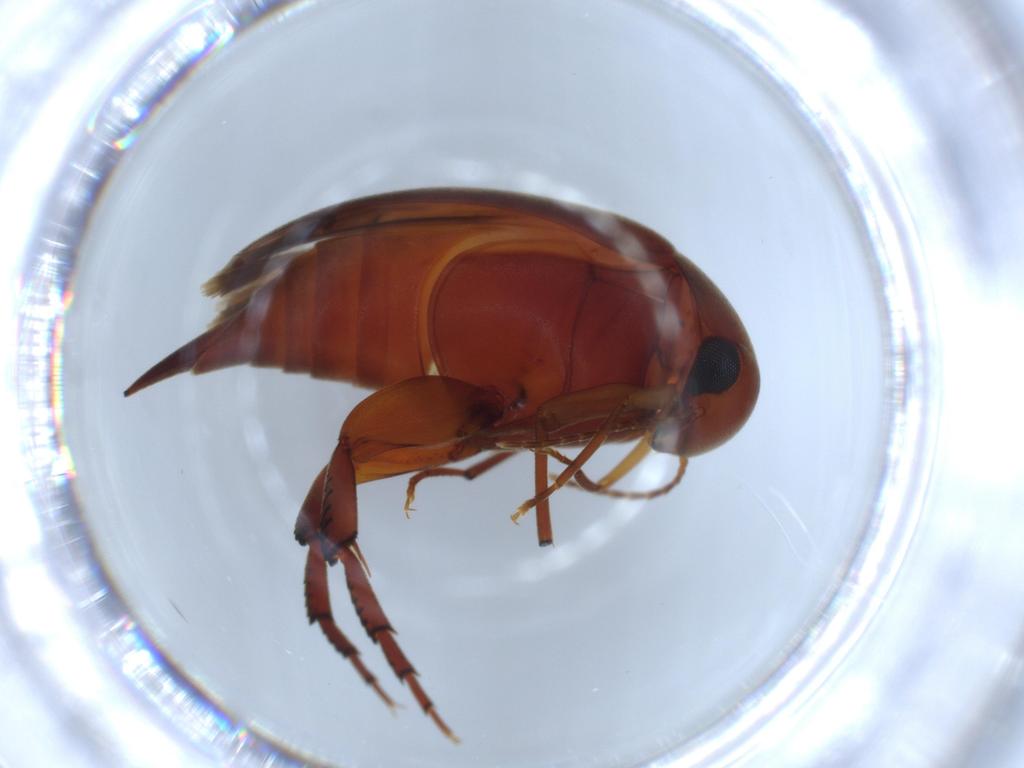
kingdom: Animalia
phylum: Arthropoda
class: Insecta
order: Coleoptera
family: Mordellidae
